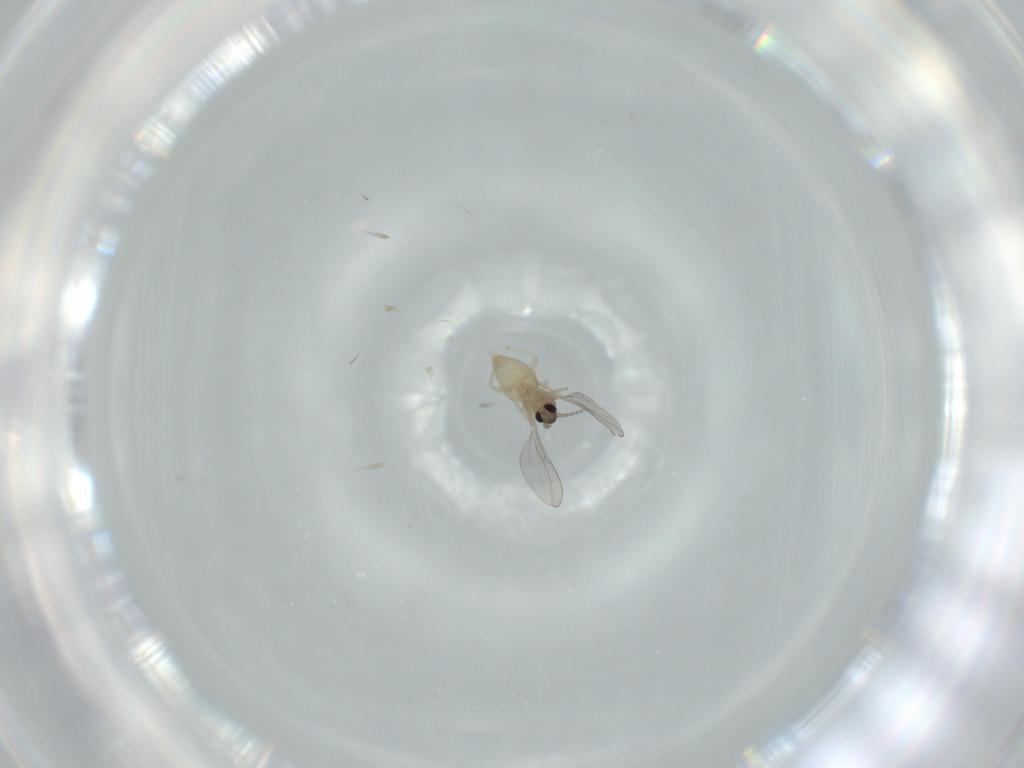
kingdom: Animalia
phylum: Arthropoda
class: Insecta
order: Diptera
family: Cecidomyiidae
